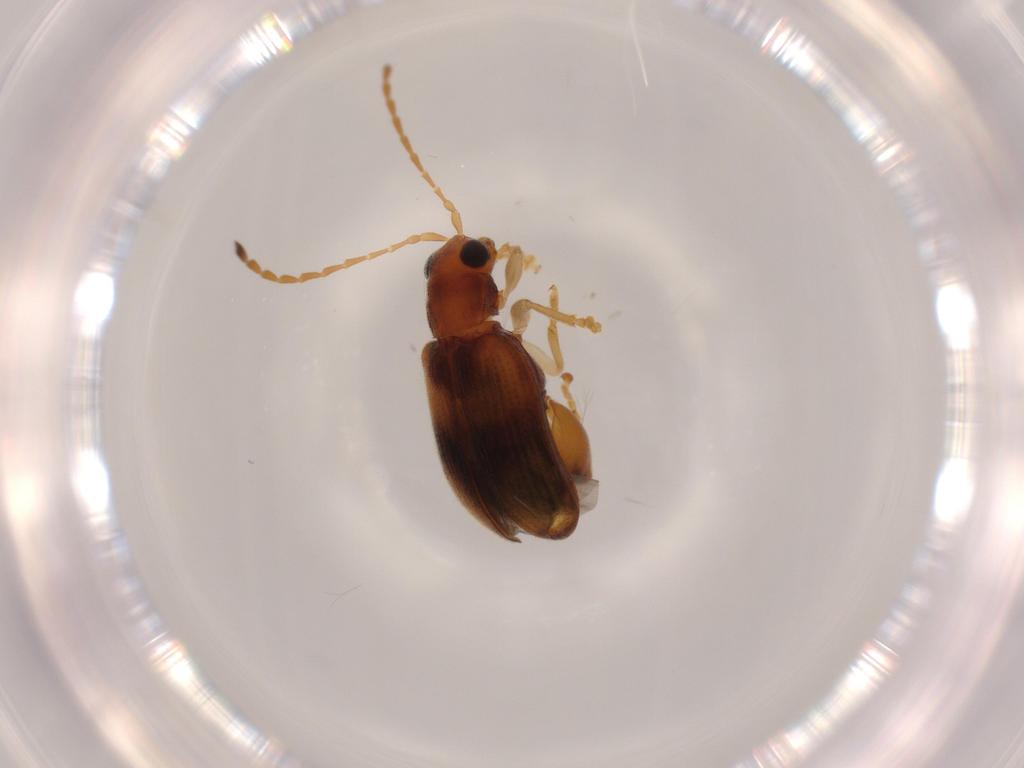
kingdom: Animalia
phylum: Arthropoda
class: Insecta
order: Coleoptera
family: Chrysomelidae
